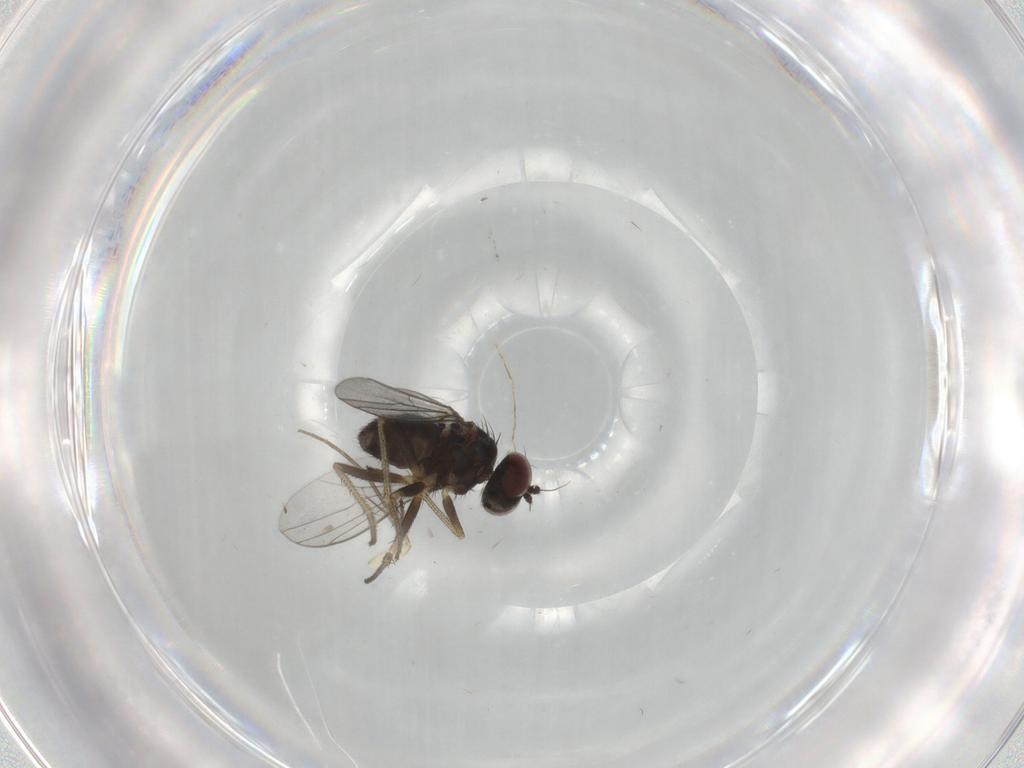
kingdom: Animalia
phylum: Arthropoda
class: Insecta
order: Diptera
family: Mycetophilidae
